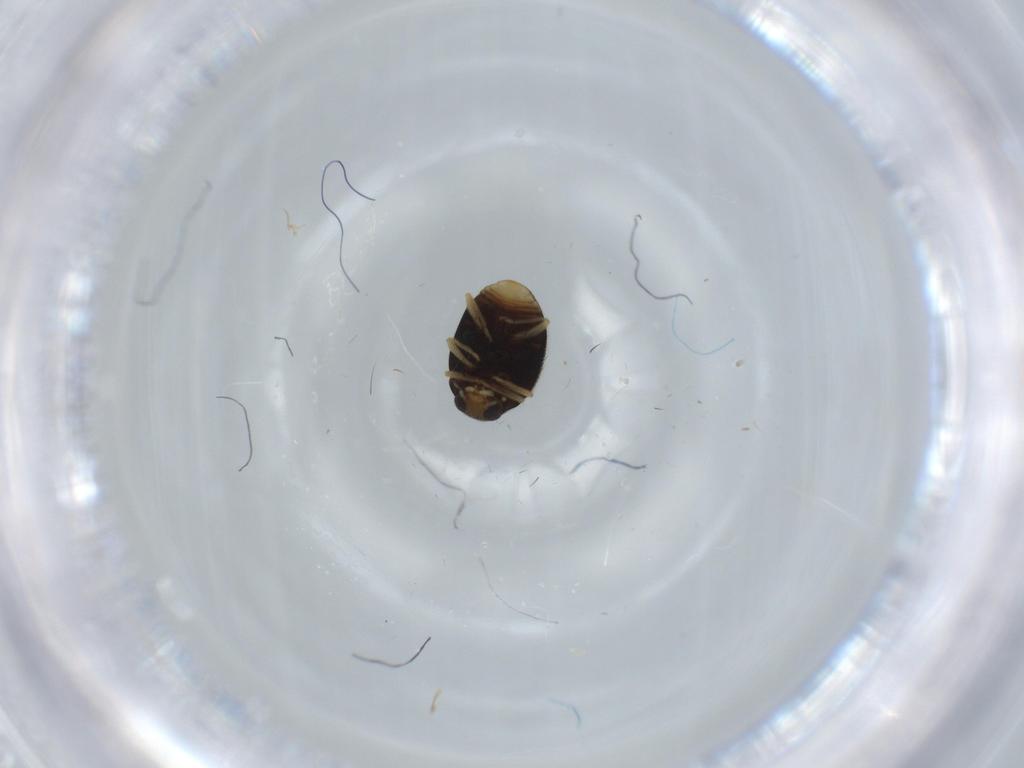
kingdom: Animalia
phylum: Arthropoda
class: Insecta
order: Coleoptera
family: Coccinellidae
